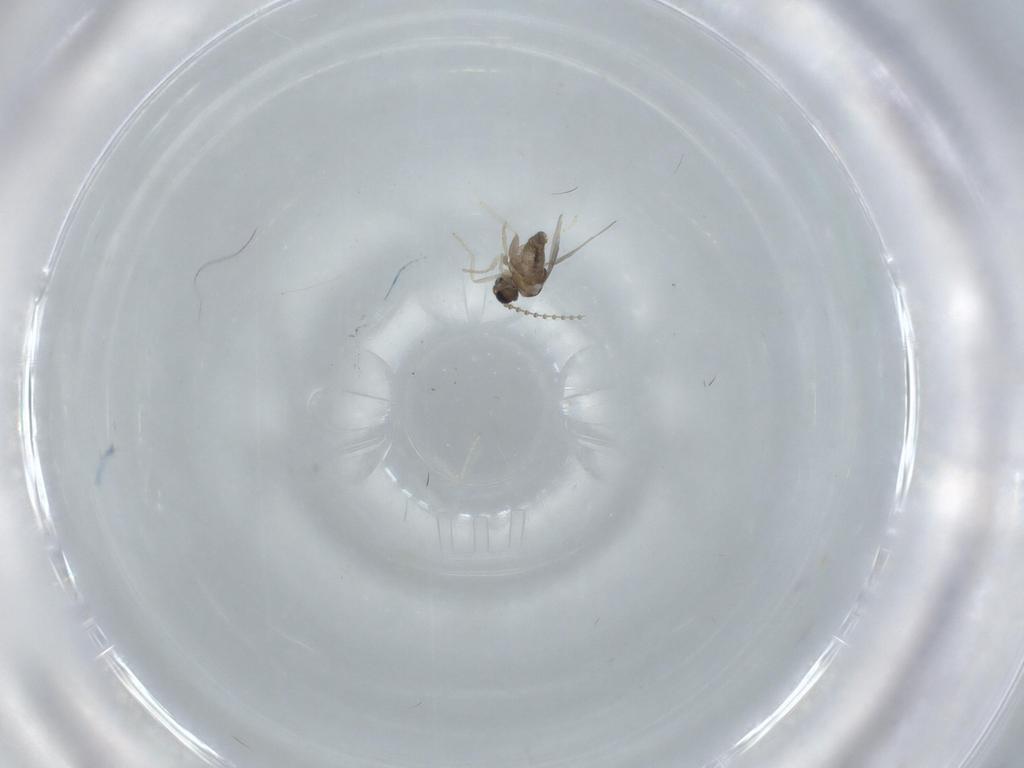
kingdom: Animalia
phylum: Arthropoda
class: Insecta
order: Diptera
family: Cecidomyiidae
